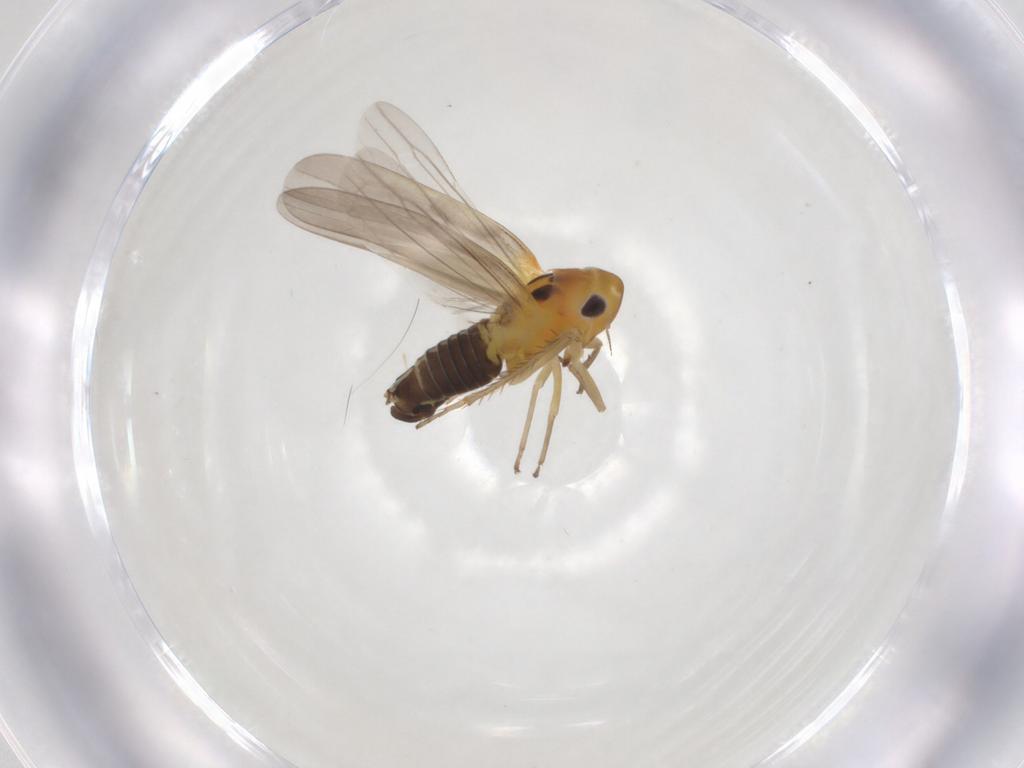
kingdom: Animalia
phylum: Arthropoda
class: Insecta
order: Hemiptera
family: Cicadellidae
